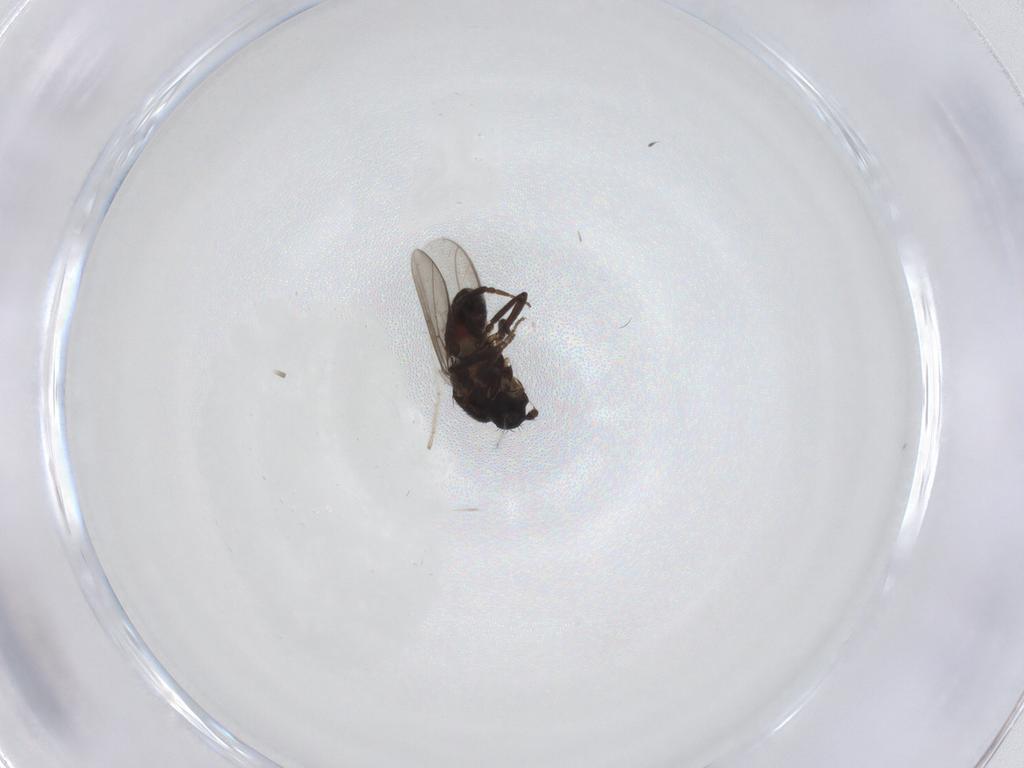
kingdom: Animalia
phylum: Arthropoda
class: Insecta
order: Diptera
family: Sphaeroceridae
